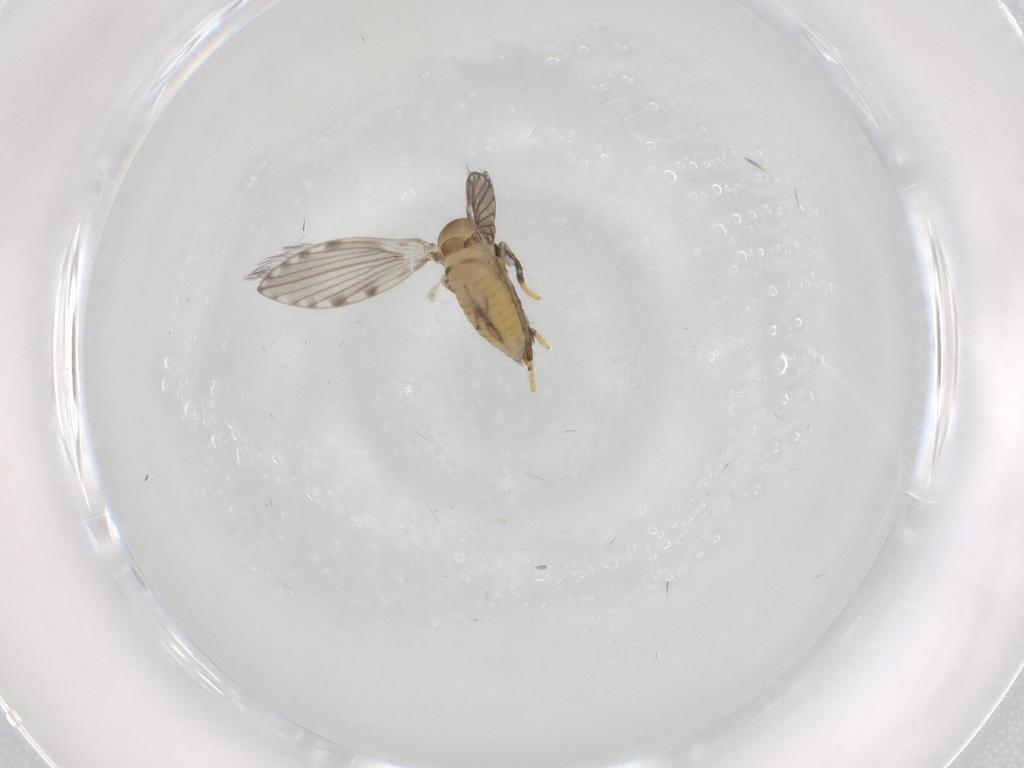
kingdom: Animalia
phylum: Arthropoda
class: Insecta
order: Diptera
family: Psychodidae
